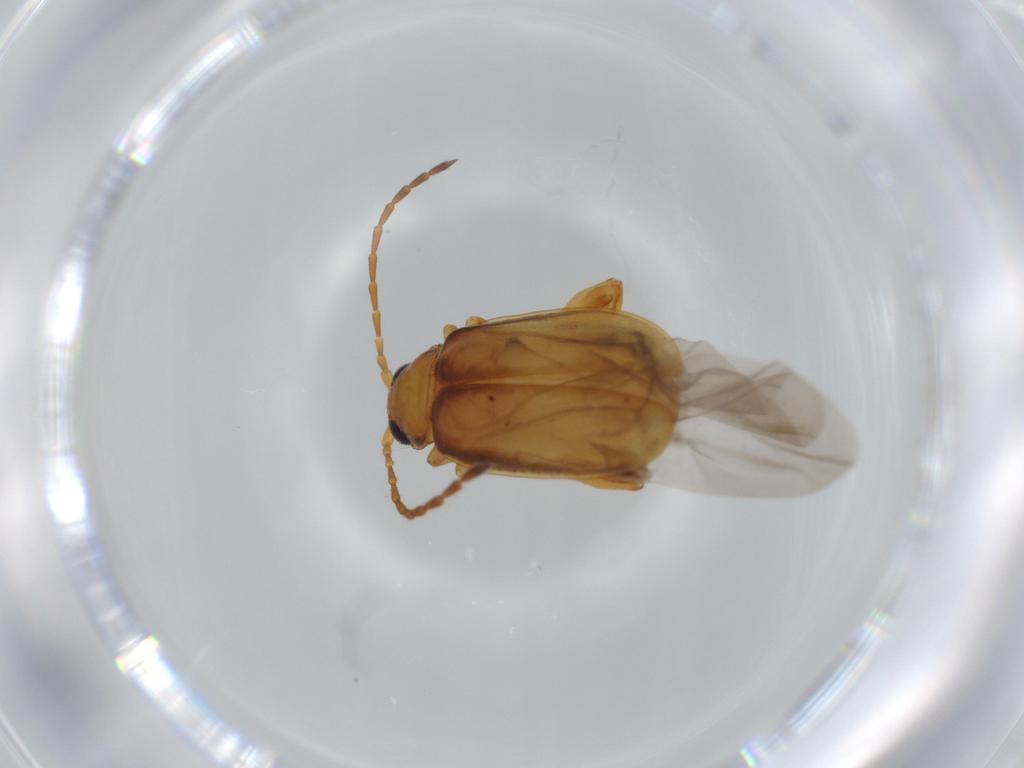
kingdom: Animalia
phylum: Arthropoda
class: Insecta
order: Coleoptera
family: Chrysomelidae
